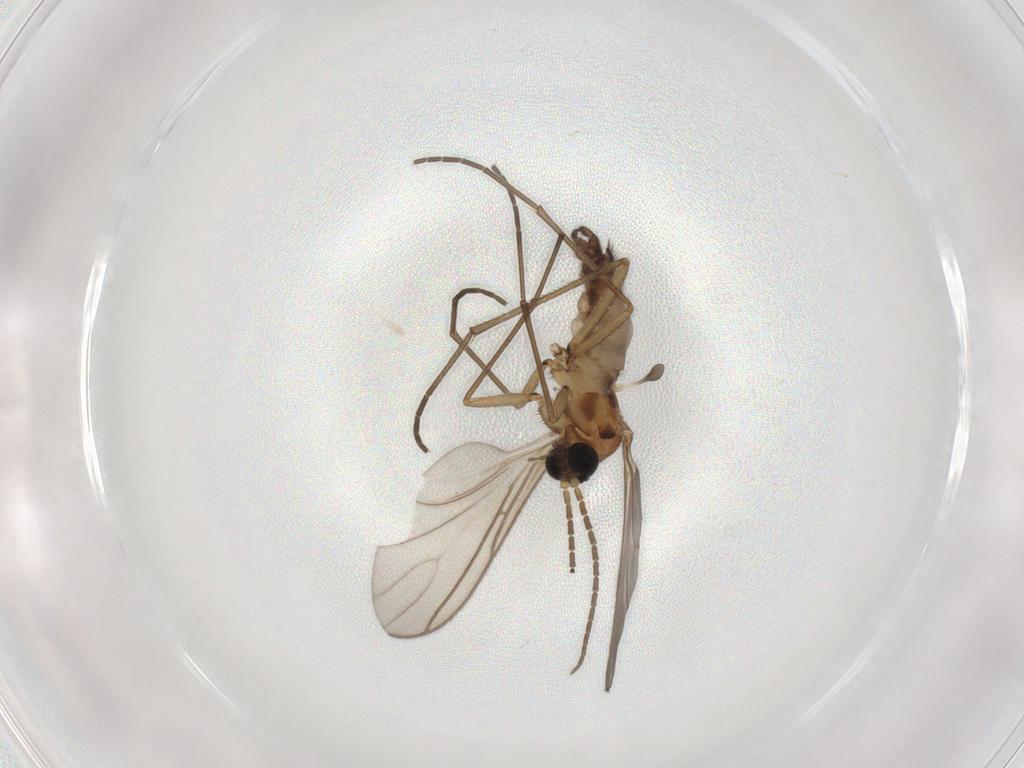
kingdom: Animalia
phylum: Arthropoda
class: Insecta
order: Diptera
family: Sciaridae
